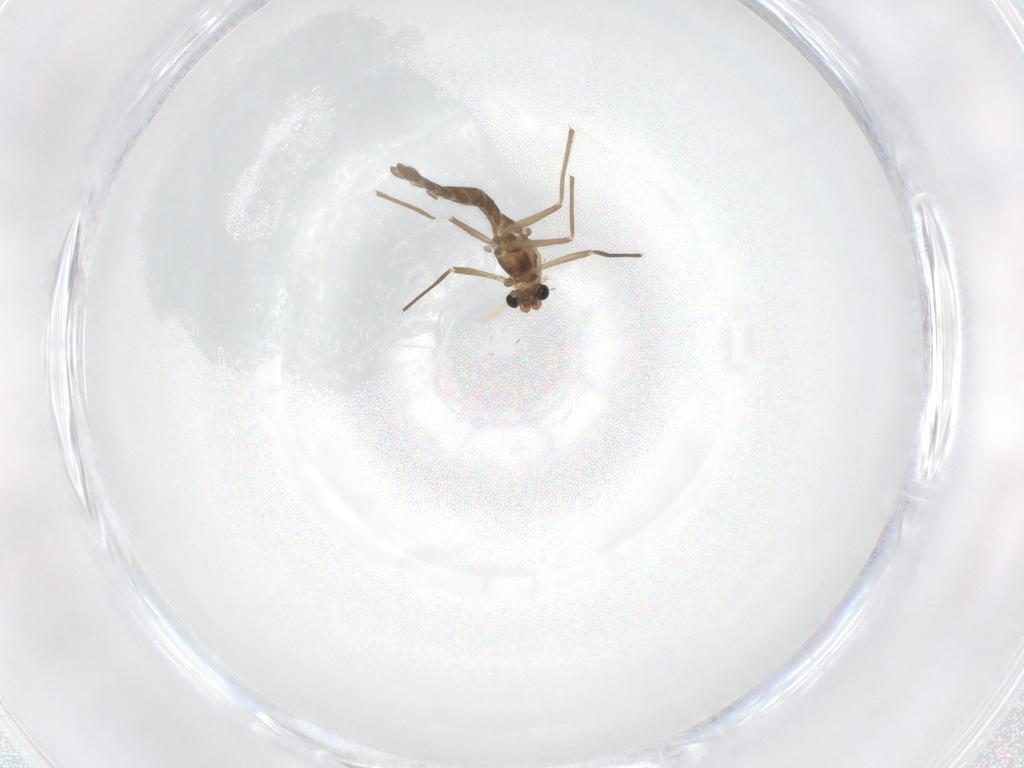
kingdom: Animalia
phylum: Arthropoda
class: Insecta
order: Diptera
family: Chironomidae
